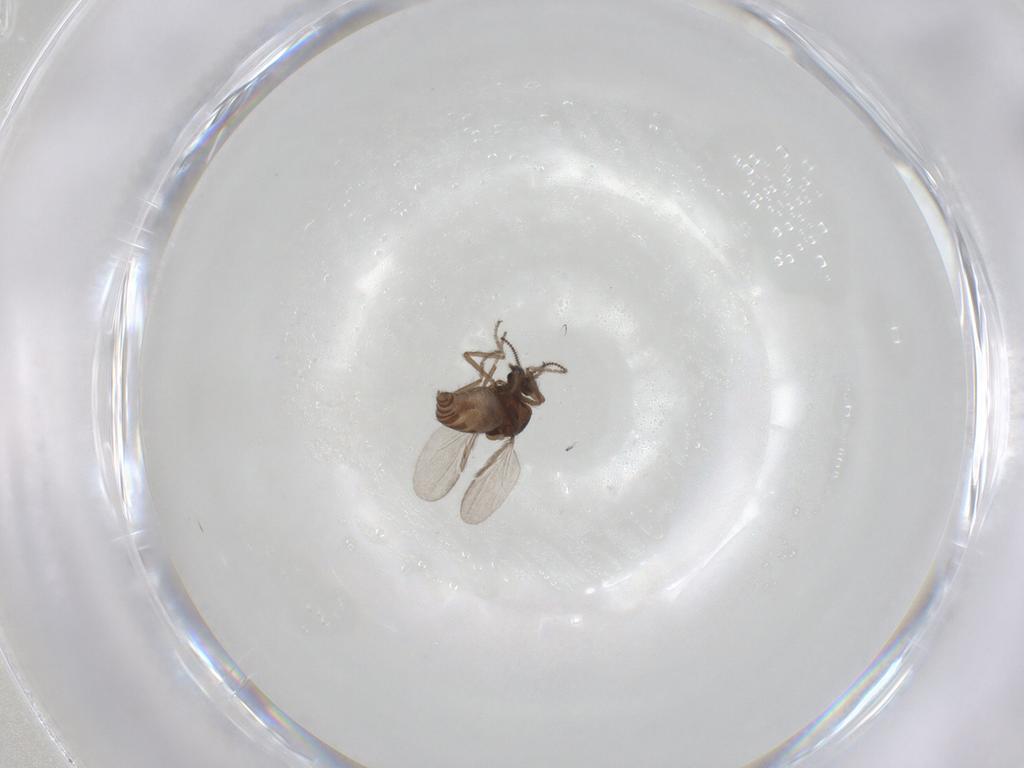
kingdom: Animalia
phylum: Arthropoda
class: Insecta
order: Diptera
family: Ceratopogonidae
